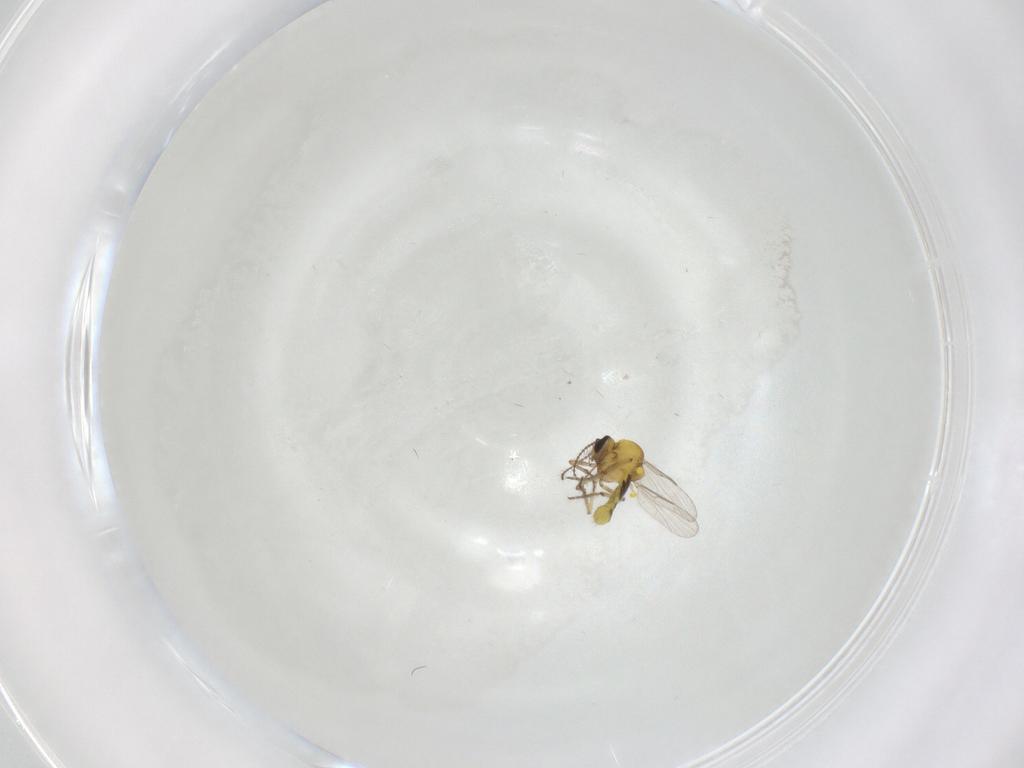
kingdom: Animalia
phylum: Arthropoda
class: Insecta
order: Diptera
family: Ceratopogonidae
